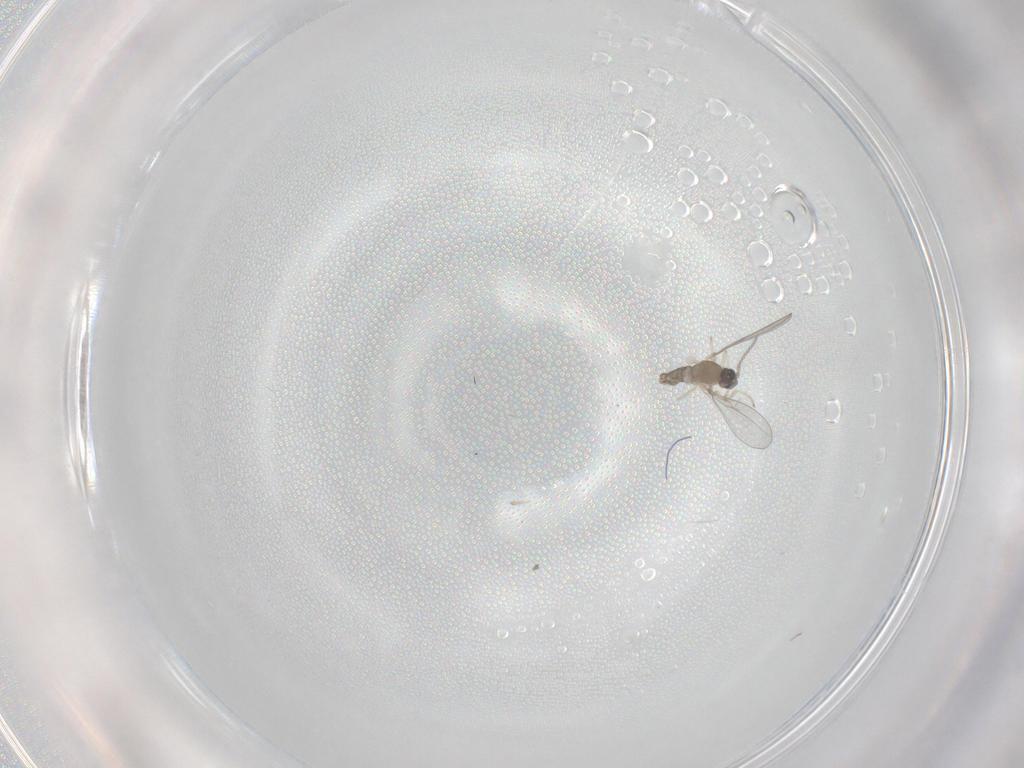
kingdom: Animalia
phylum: Arthropoda
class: Insecta
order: Diptera
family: Cecidomyiidae
